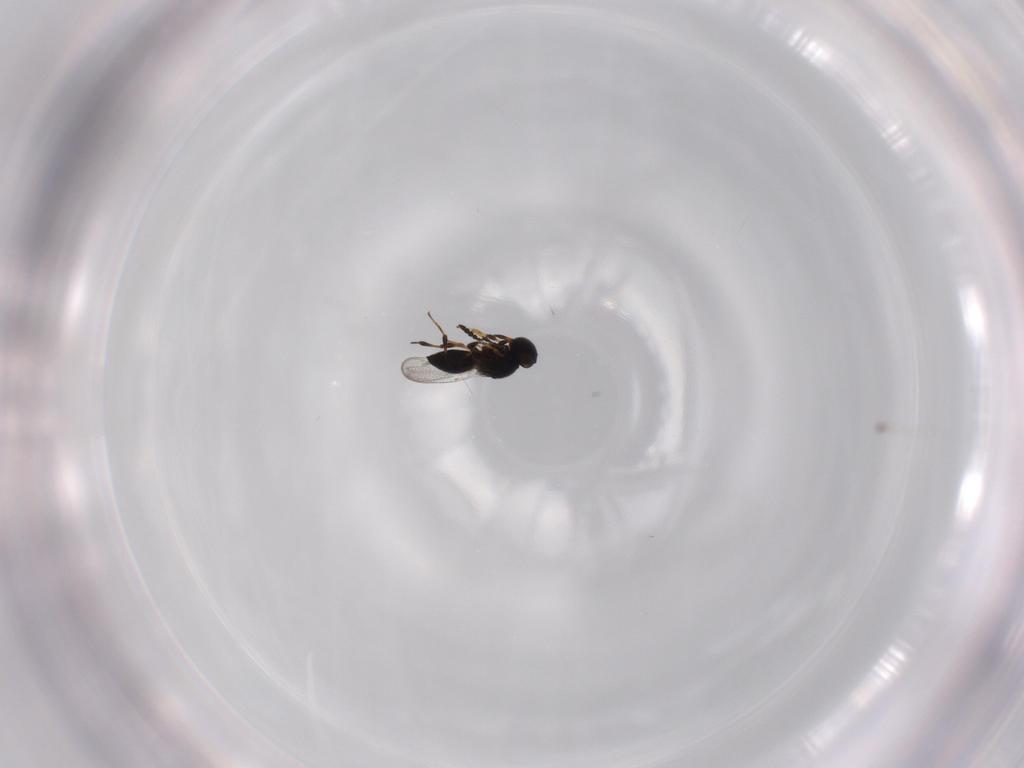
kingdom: Animalia
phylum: Arthropoda
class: Insecta
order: Hymenoptera
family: Platygastridae
